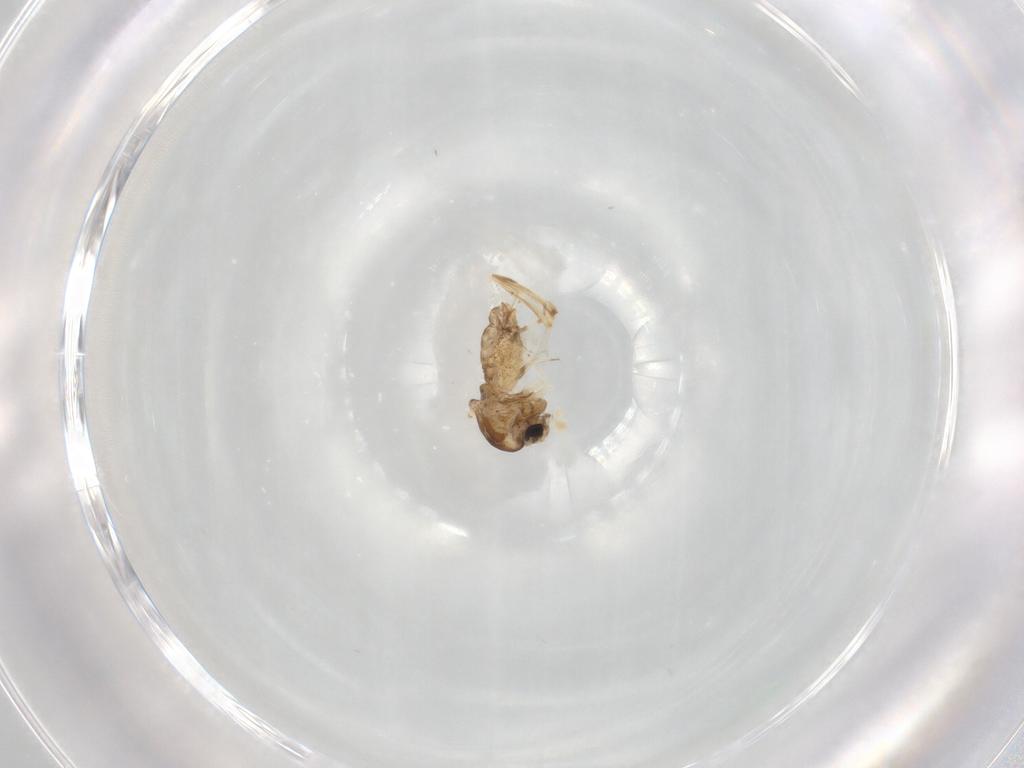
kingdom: Animalia
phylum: Arthropoda
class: Insecta
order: Diptera
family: Chironomidae
